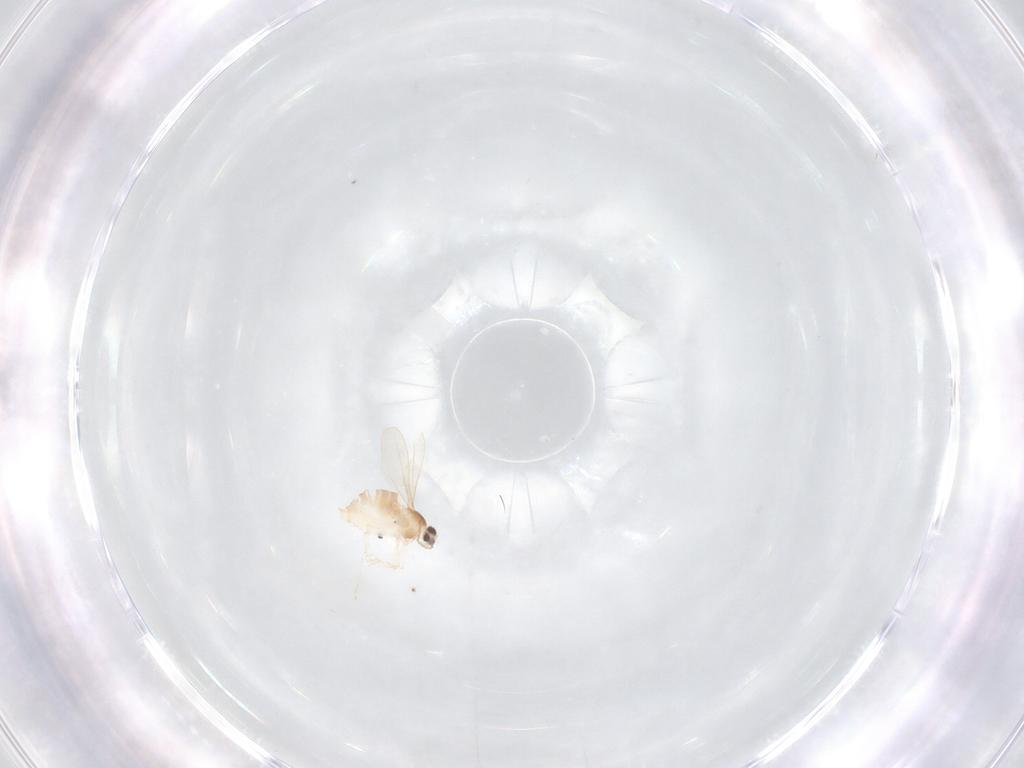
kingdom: Animalia
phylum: Arthropoda
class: Insecta
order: Diptera
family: Cecidomyiidae
